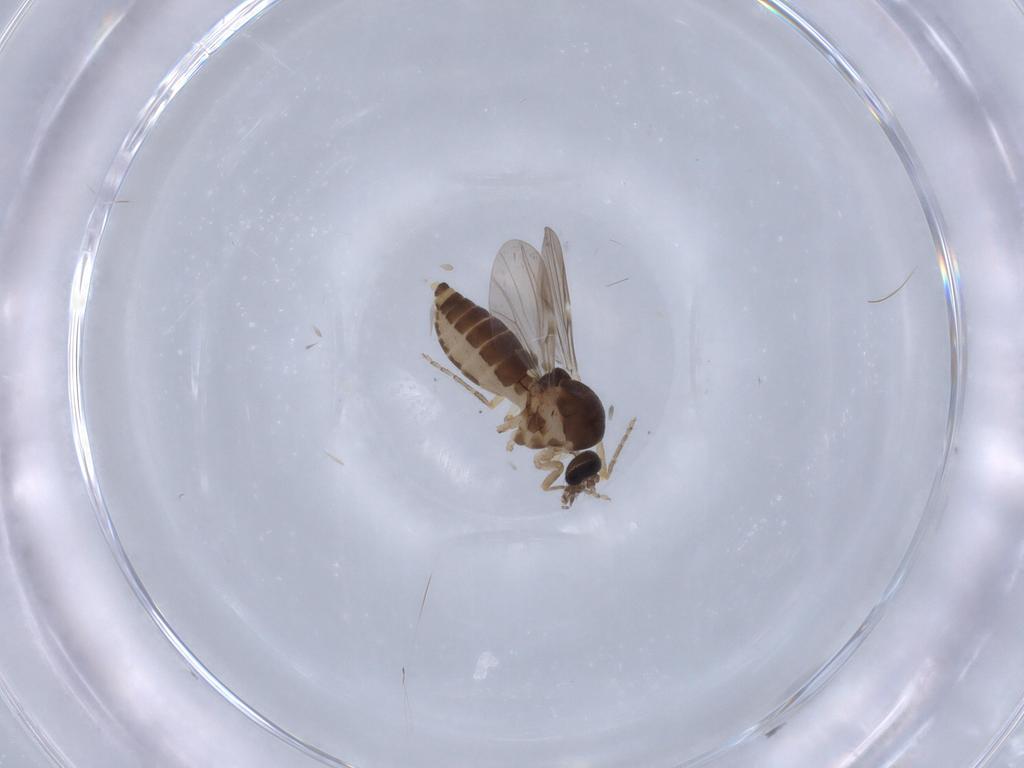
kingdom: Animalia
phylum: Arthropoda
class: Insecta
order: Diptera
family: Ceratopogonidae
